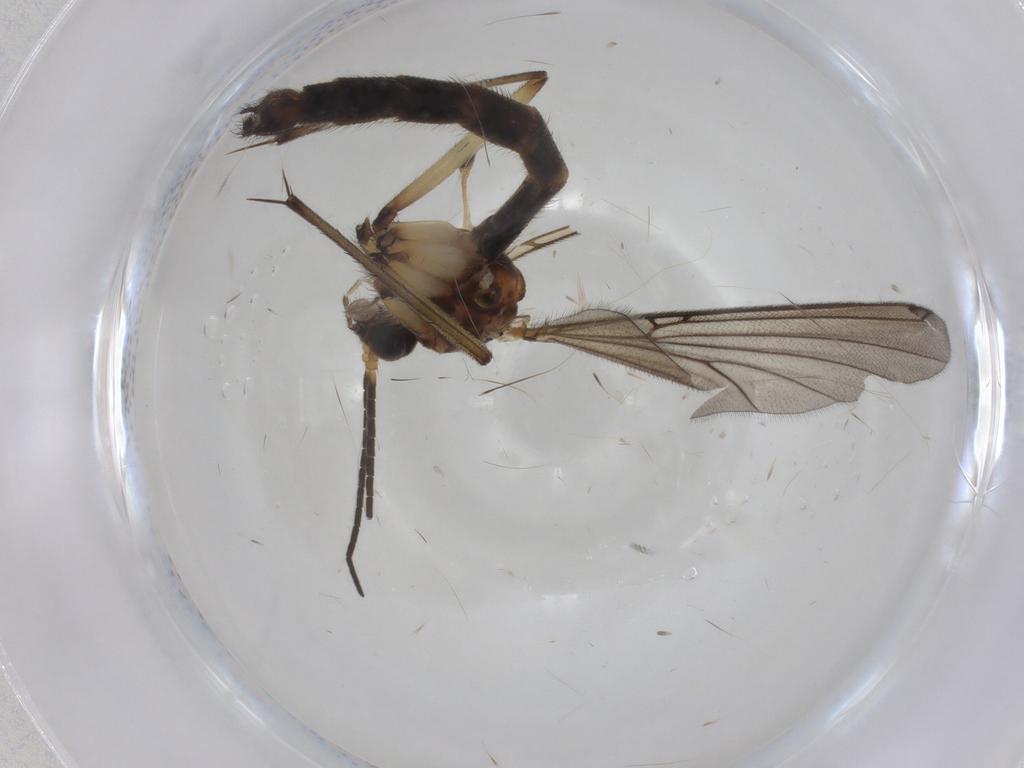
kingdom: Animalia
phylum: Arthropoda
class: Insecta
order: Diptera
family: Mycetophilidae
